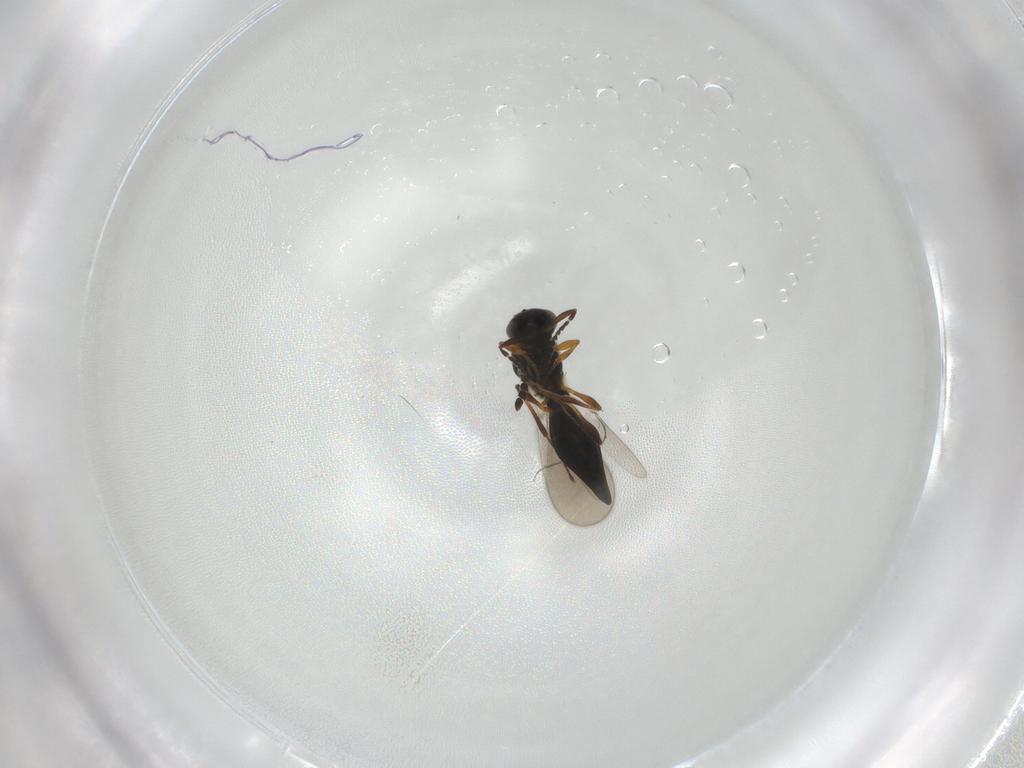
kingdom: Animalia
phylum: Arthropoda
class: Insecta
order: Hymenoptera
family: Platygastridae
